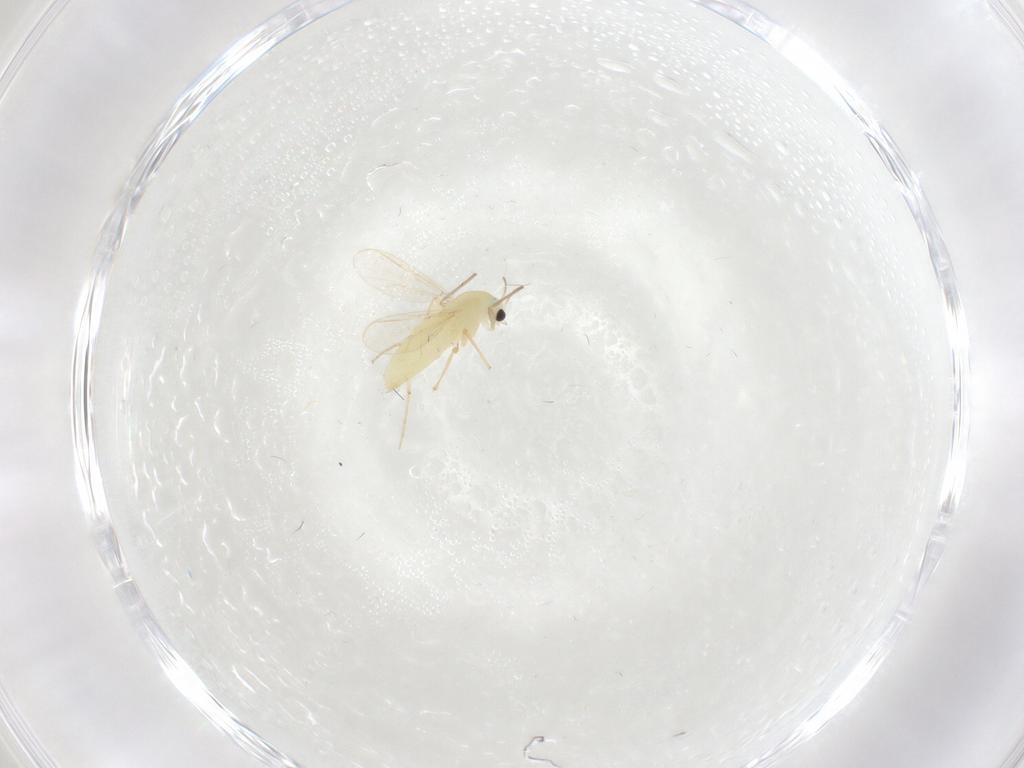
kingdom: Animalia
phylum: Arthropoda
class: Insecta
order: Diptera
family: Chironomidae
